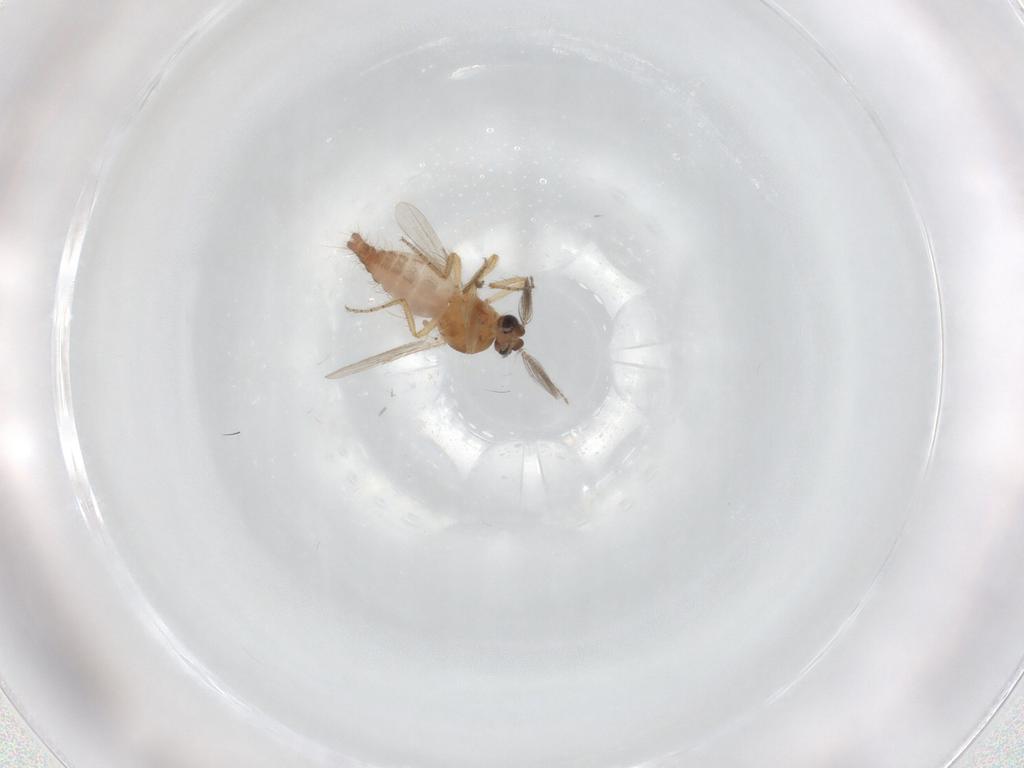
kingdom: Animalia
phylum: Arthropoda
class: Insecta
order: Diptera
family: Ceratopogonidae
